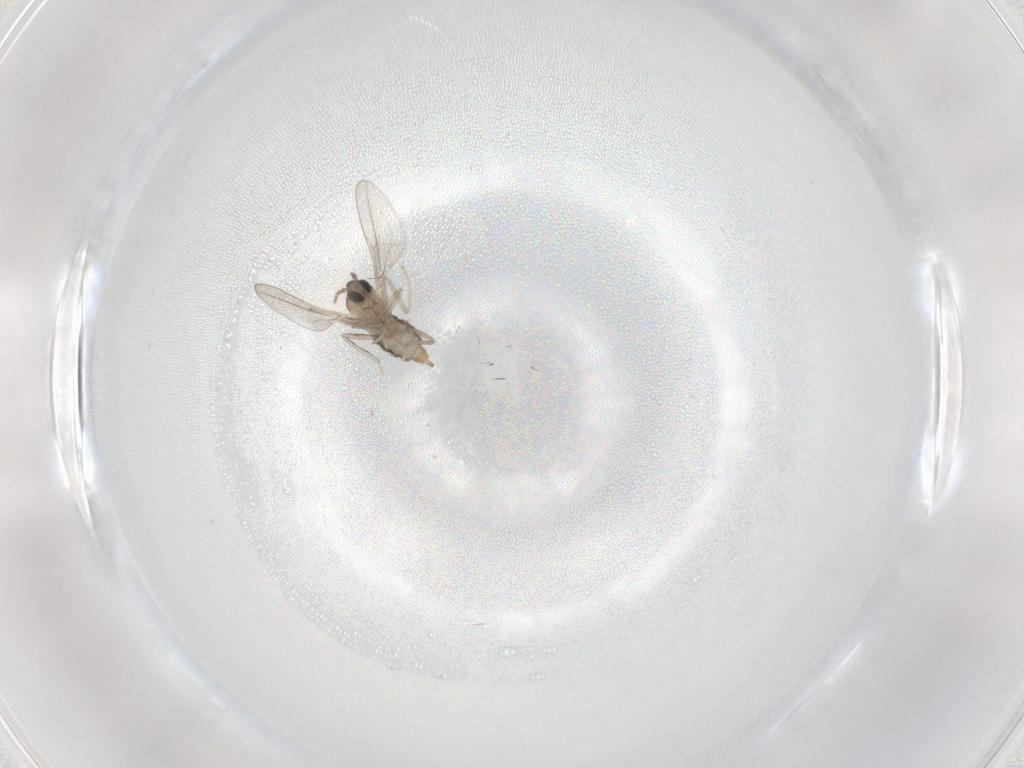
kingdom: Animalia
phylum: Arthropoda
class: Insecta
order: Diptera
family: Cecidomyiidae
